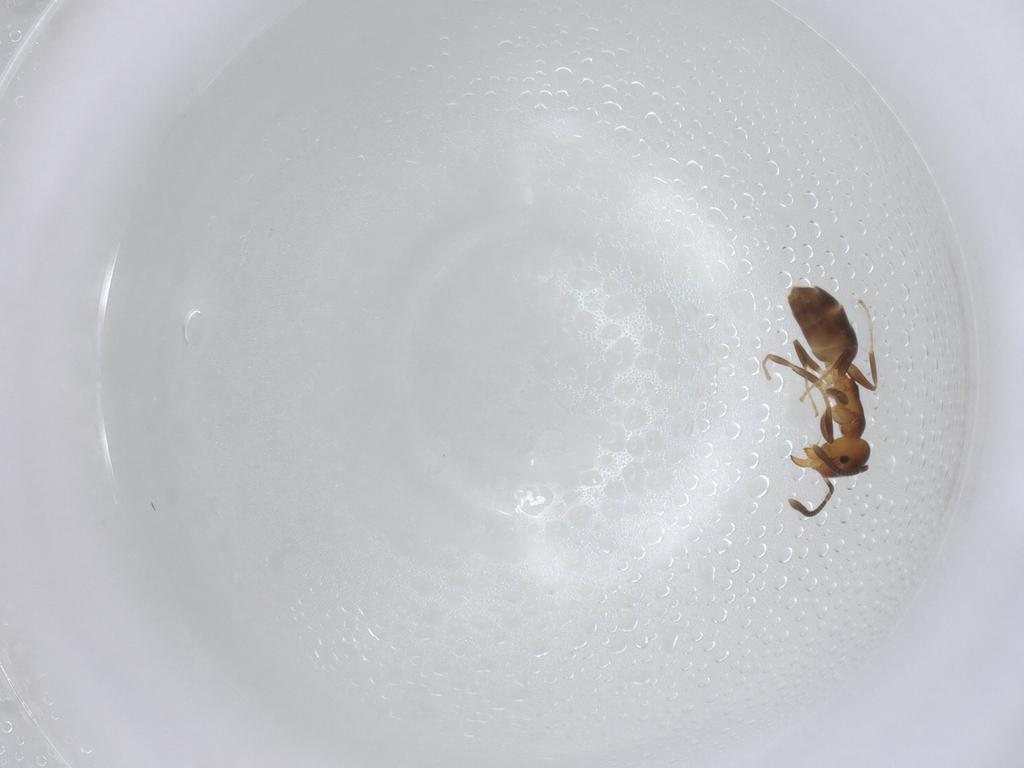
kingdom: Animalia
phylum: Arthropoda
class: Insecta
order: Hymenoptera
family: Formicidae
